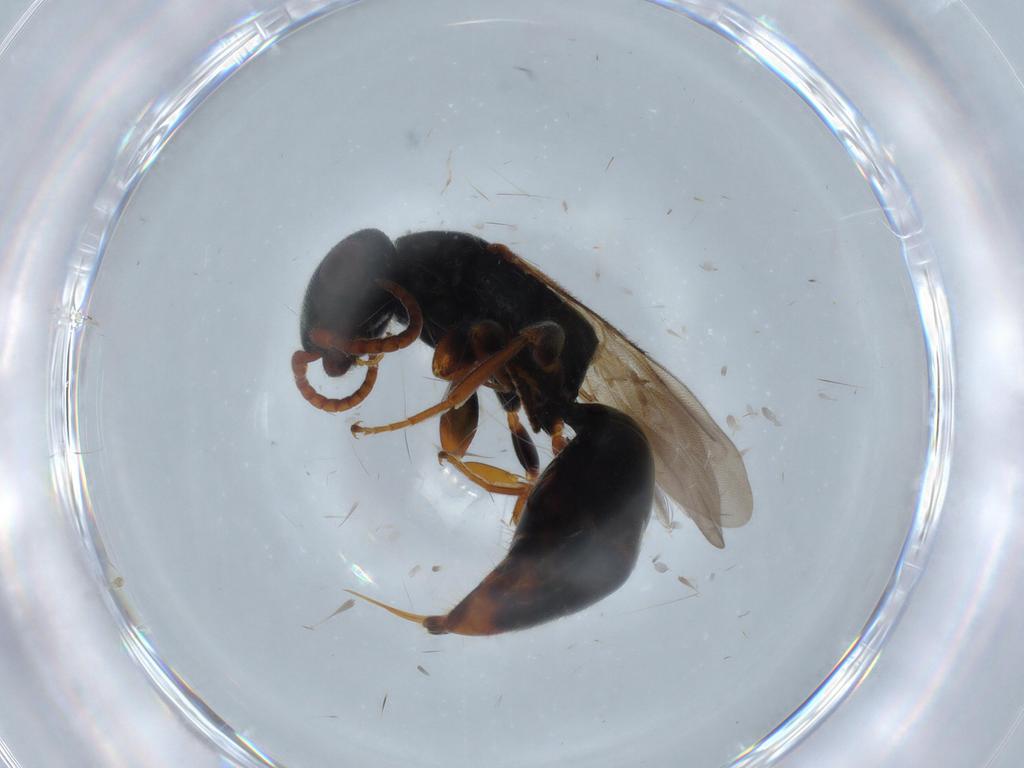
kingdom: Animalia
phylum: Arthropoda
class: Insecta
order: Hymenoptera
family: Bethylidae
